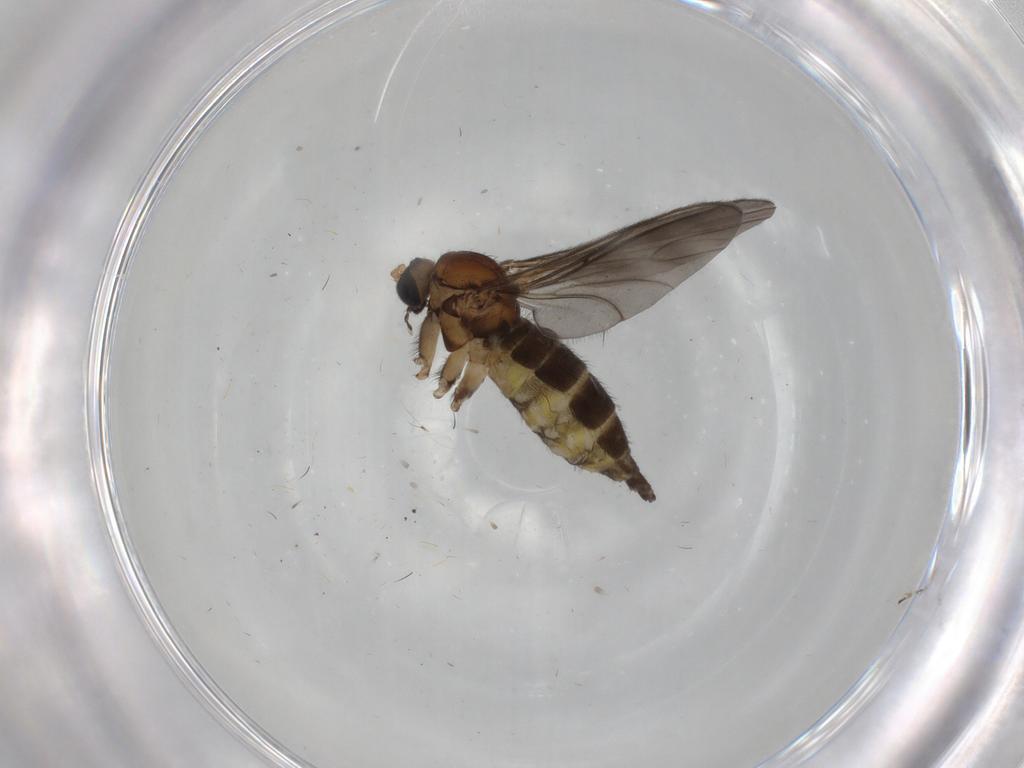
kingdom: Animalia
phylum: Arthropoda
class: Insecta
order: Diptera
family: Sciaridae
